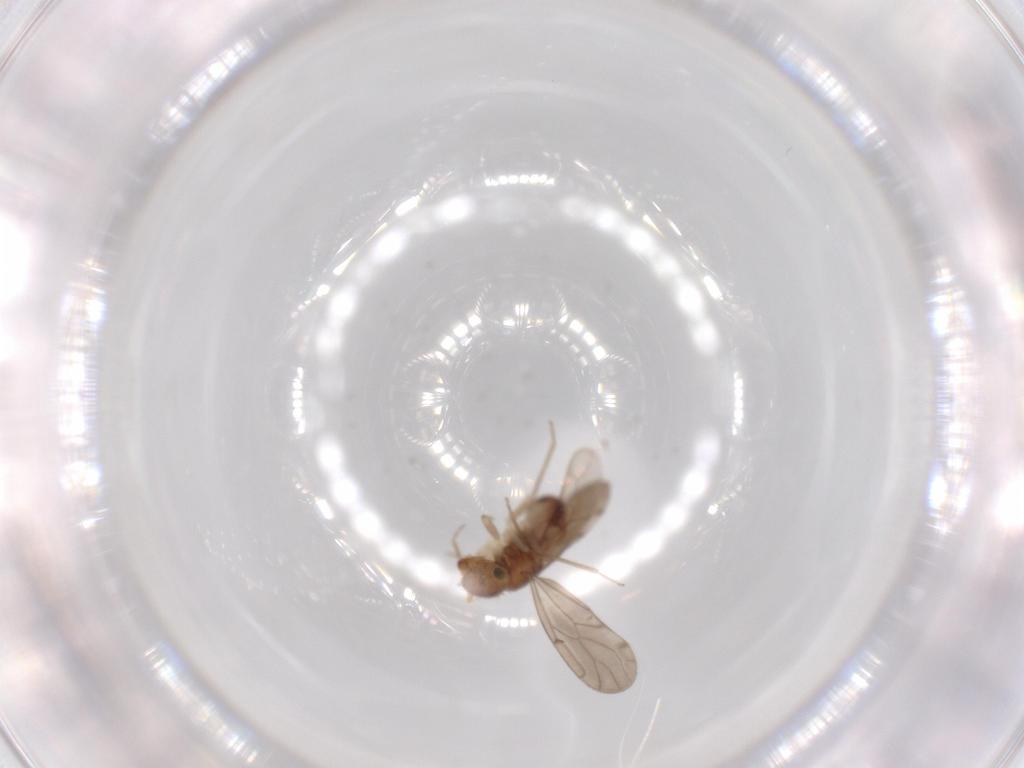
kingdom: Animalia
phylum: Arthropoda
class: Insecta
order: Psocodea
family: Ectopsocidae
